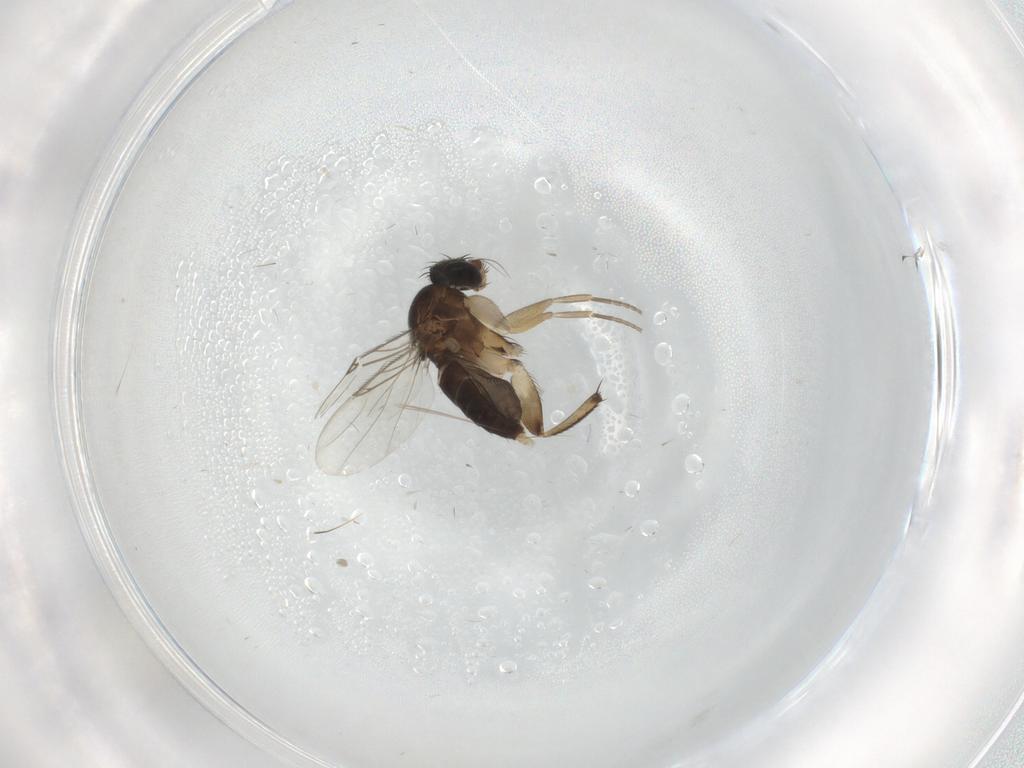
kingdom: Animalia
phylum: Arthropoda
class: Insecta
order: Diptera
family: Phoridae
